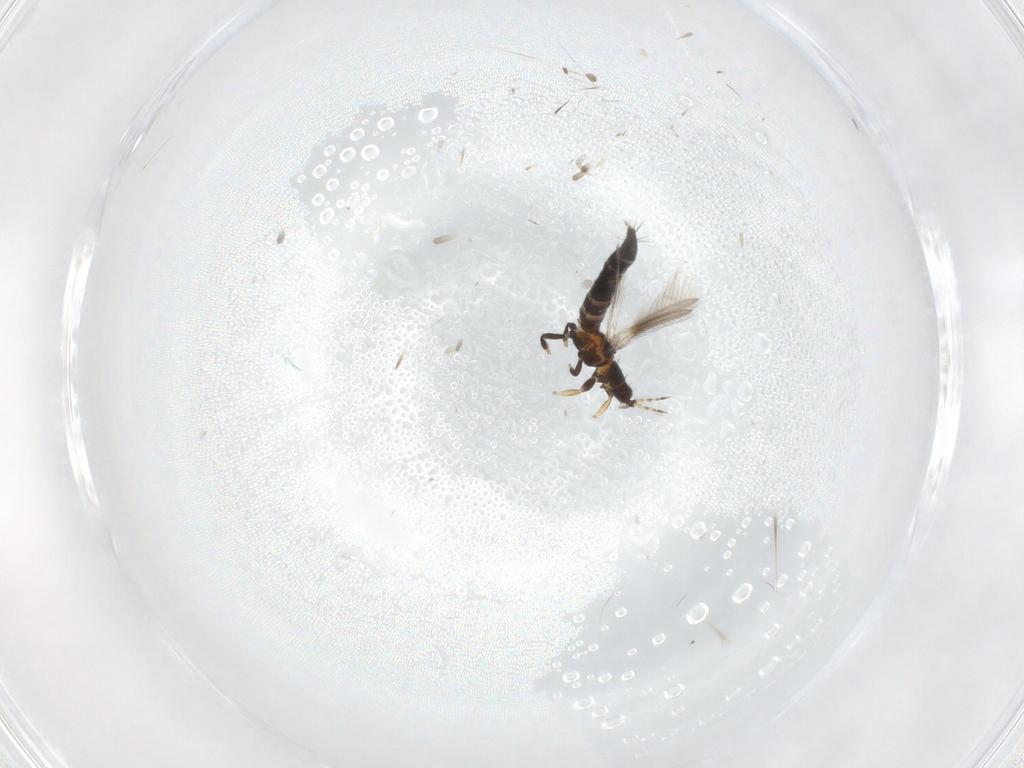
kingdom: Animalia
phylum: Arthropoda
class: Insecta
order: Thysanoptera
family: Thripidae
